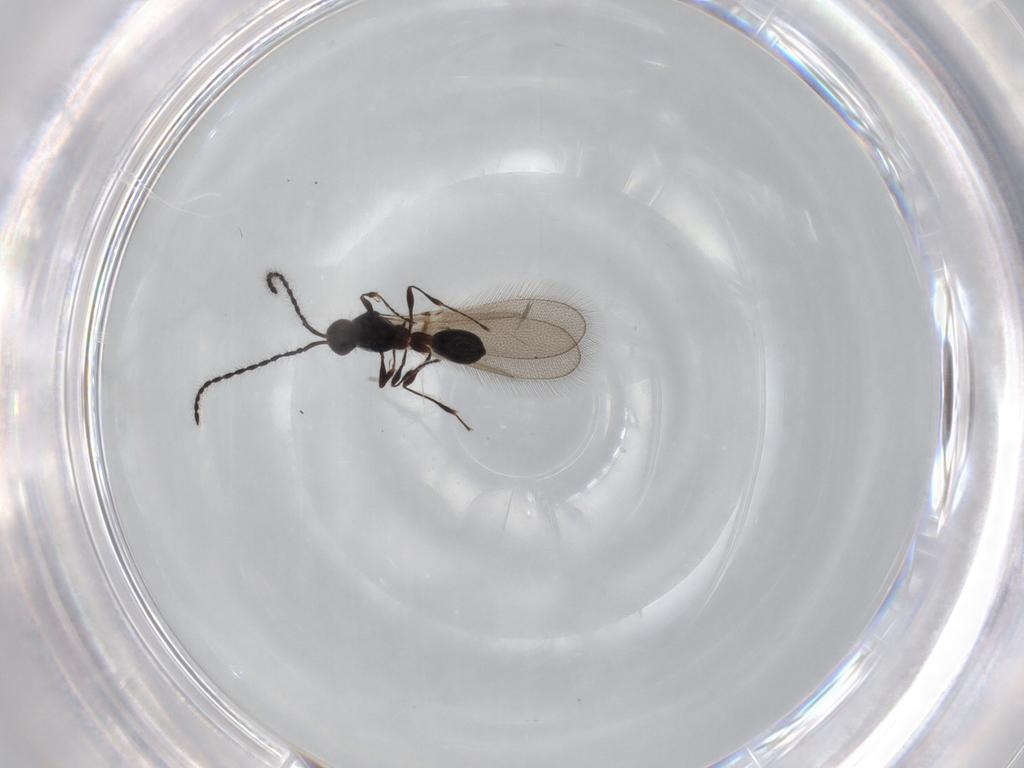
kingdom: Animalia
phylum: Arthropoda
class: Insecta
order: Hymenoptera
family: Diapriidae
